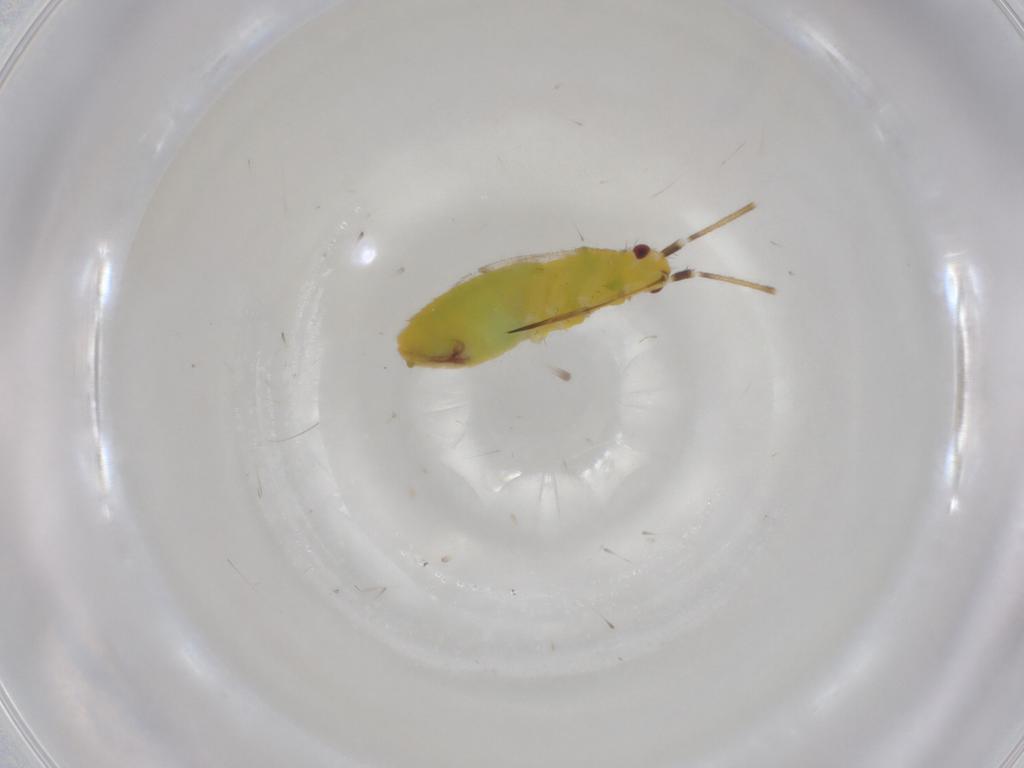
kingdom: Animalia
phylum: Arthropoda
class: Insecta
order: Hemiptera
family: Miridae
